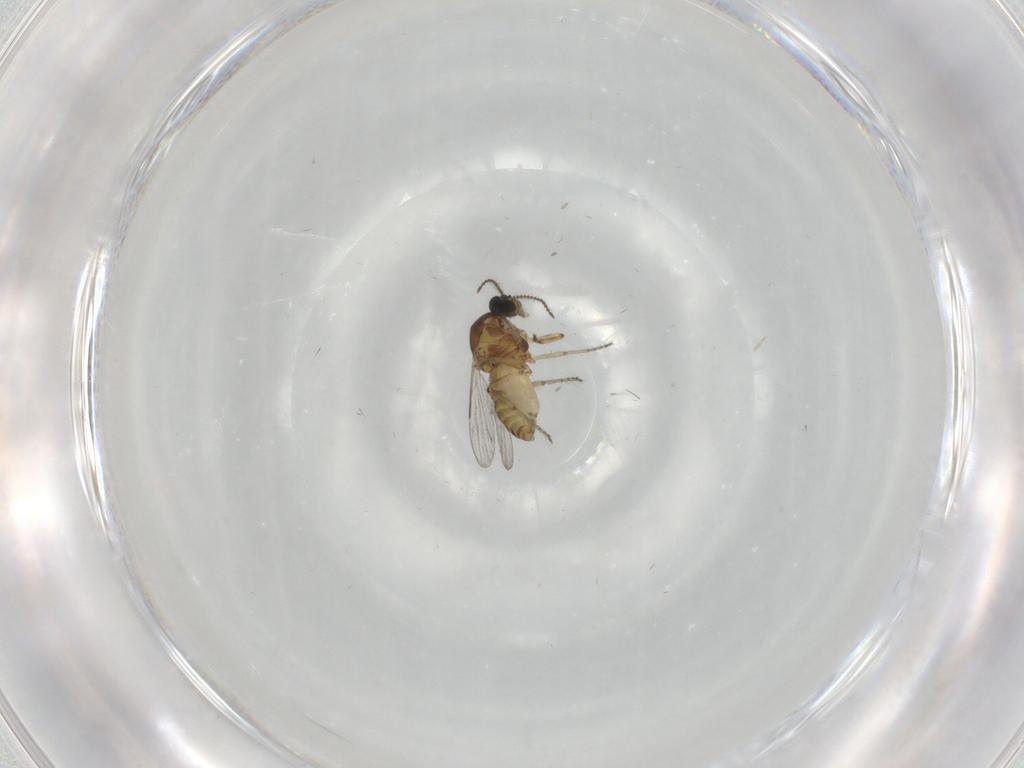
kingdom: Animalia
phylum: Arthropoda
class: Insecta
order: Diptera
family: Ceratopogonidae
